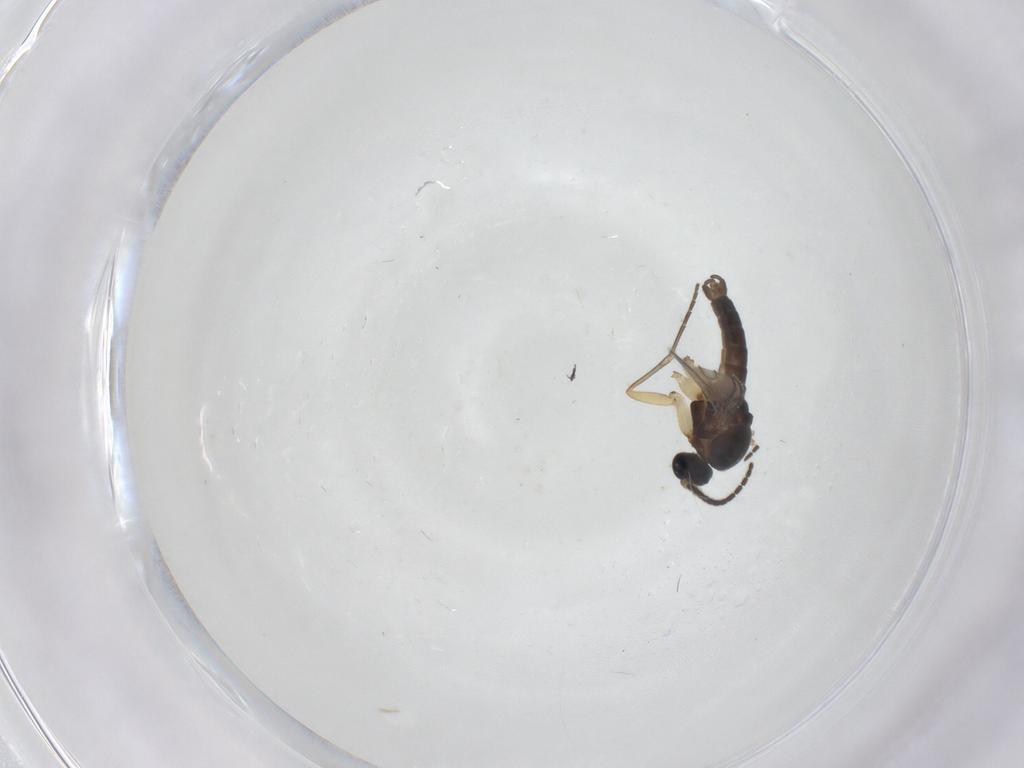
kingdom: Animalia
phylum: Arthropoda
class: Insecta
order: Diptera
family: Sciaridae
